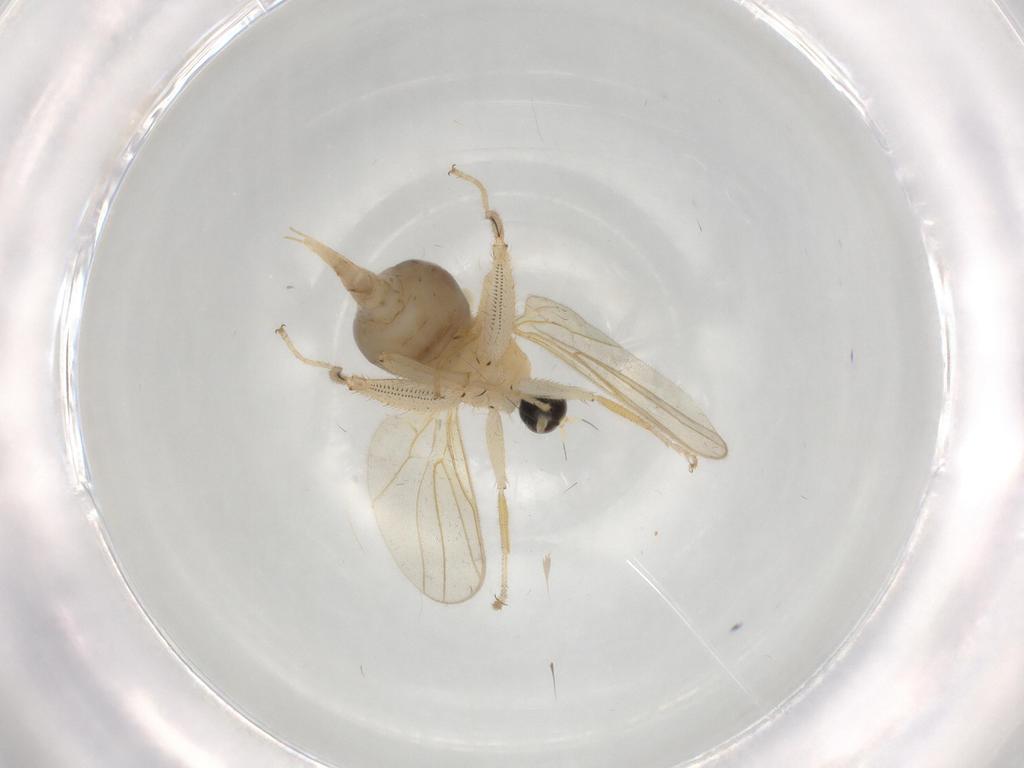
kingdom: Animalia
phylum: Arthropoda
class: Insecta
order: Diptera
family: Hybotidae
